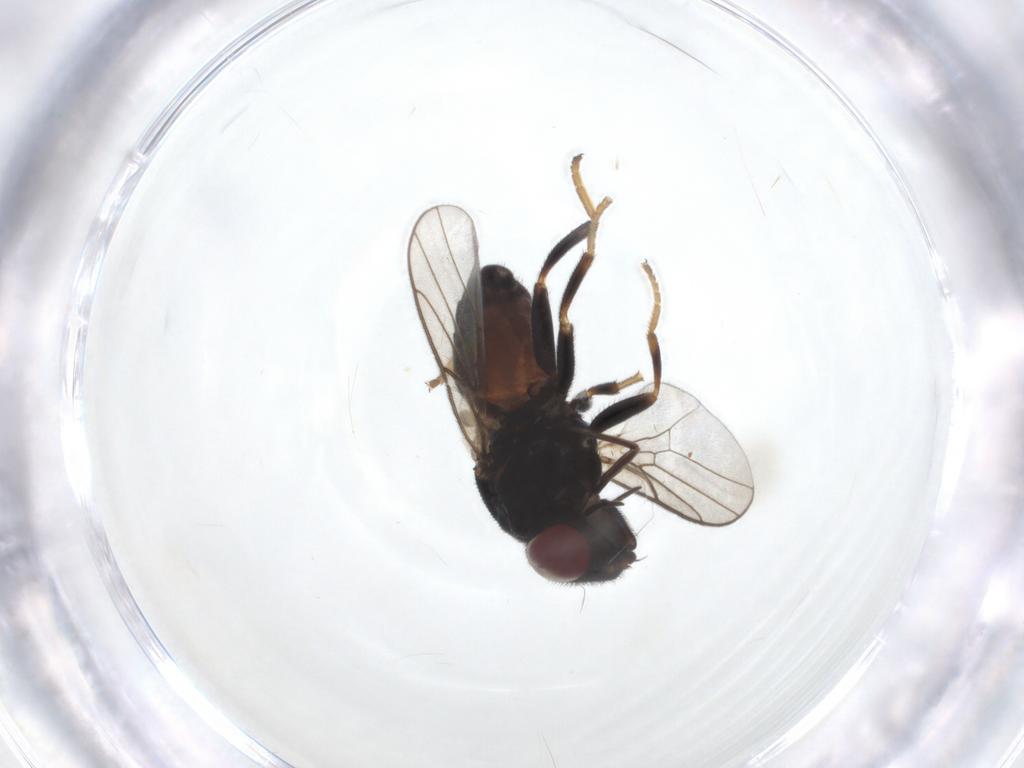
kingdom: Animalia
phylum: Arthropoda
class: Insecta
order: Diptera
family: Chloropidae
